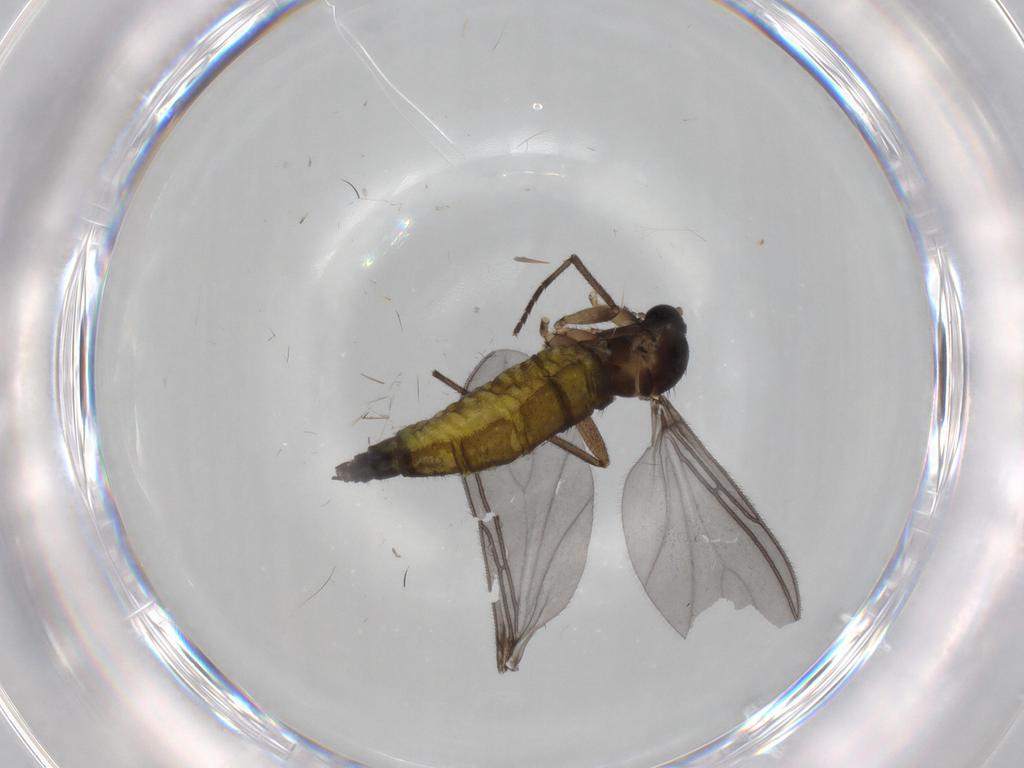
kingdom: Animalia
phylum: Arthropoda
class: Insecta
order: Diptera
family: Sciaridae
